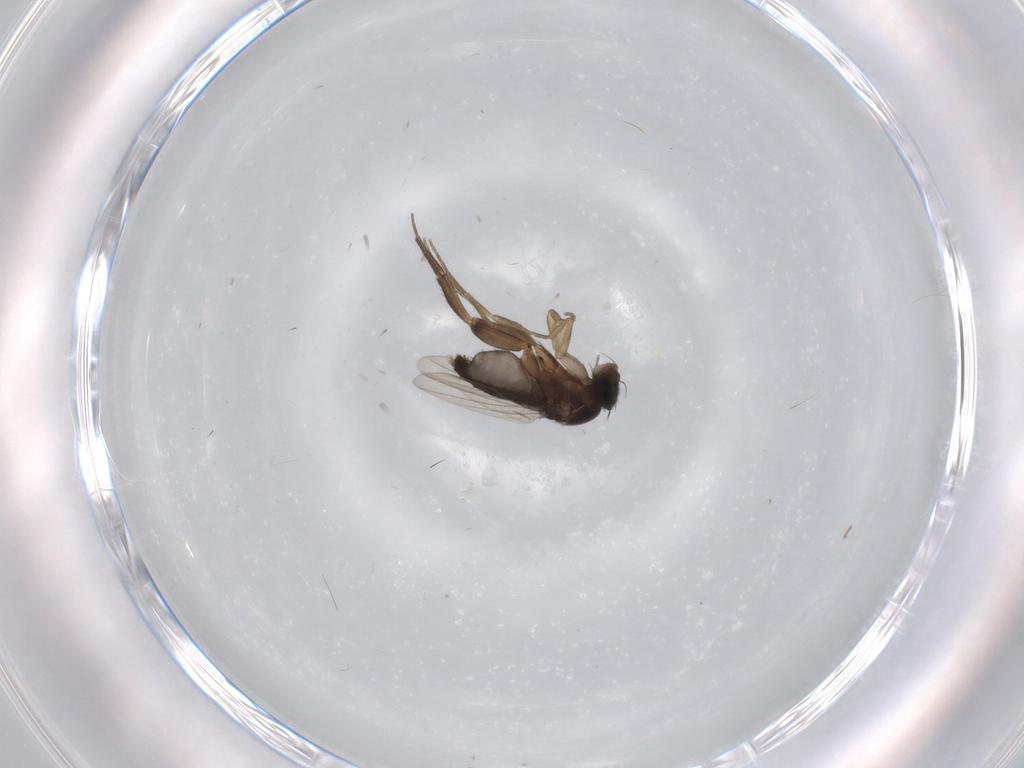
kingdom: Animalia
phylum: Arthropoda
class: Insecta
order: Diptera
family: Phoridae
